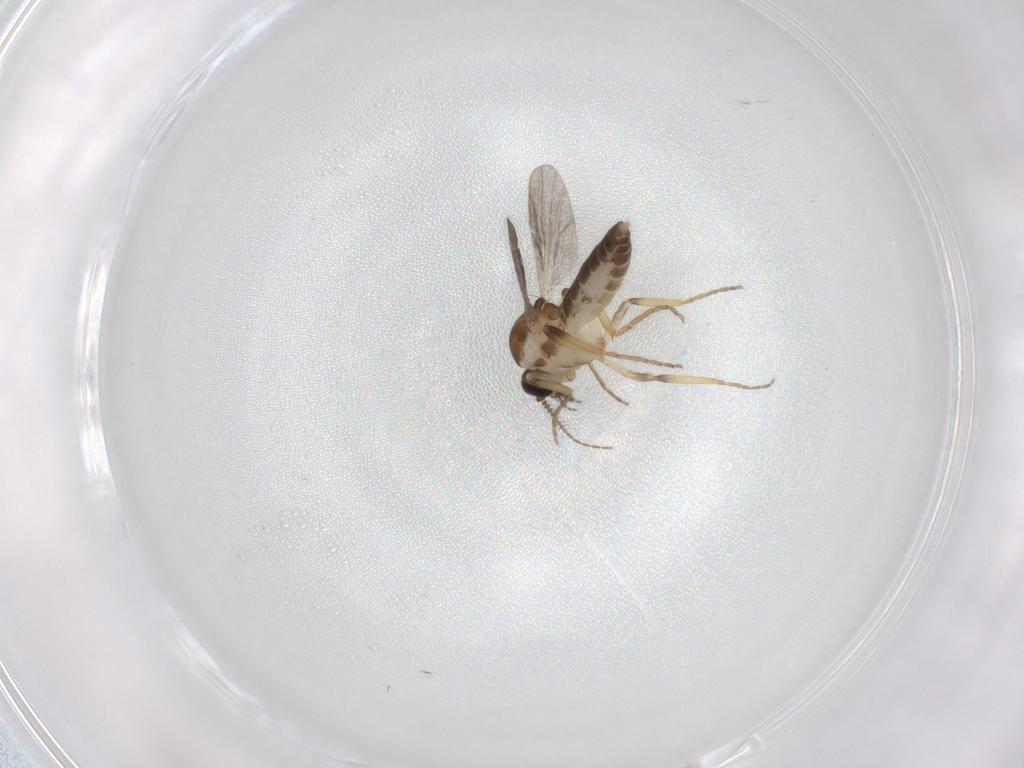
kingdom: Animalia
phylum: Arthropoda
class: Insecta
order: Diptera
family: Ceratopogonidae
